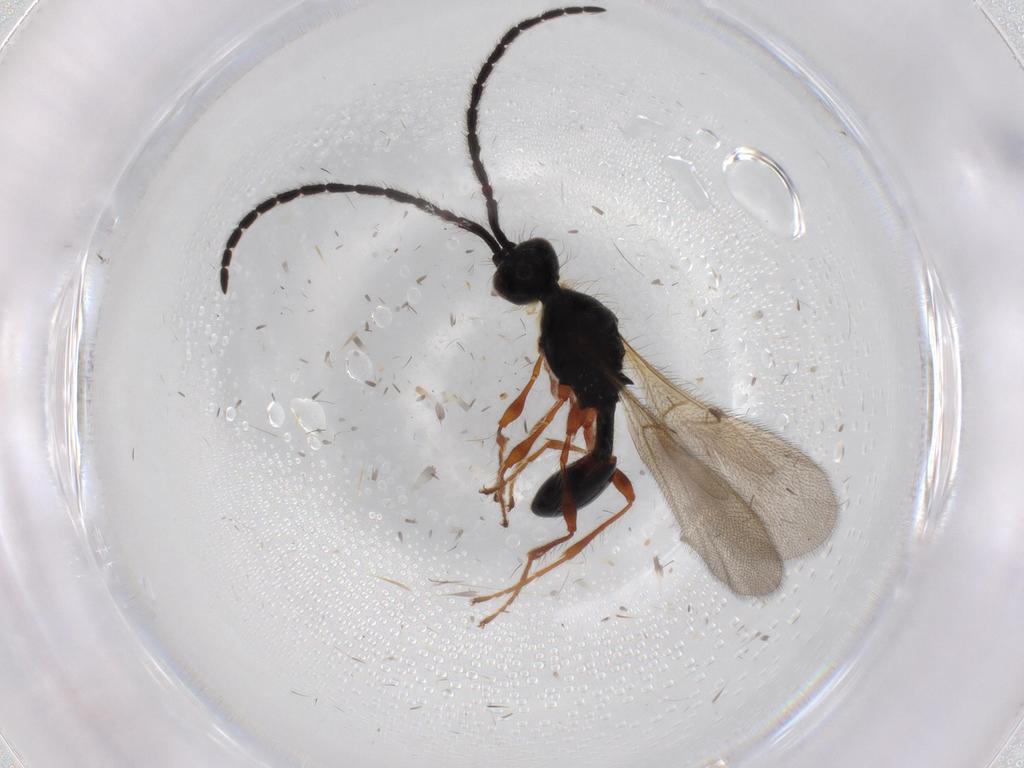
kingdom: Animalia
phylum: Arthropoda
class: Insecta
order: Hymenoptera
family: Diapriidae
